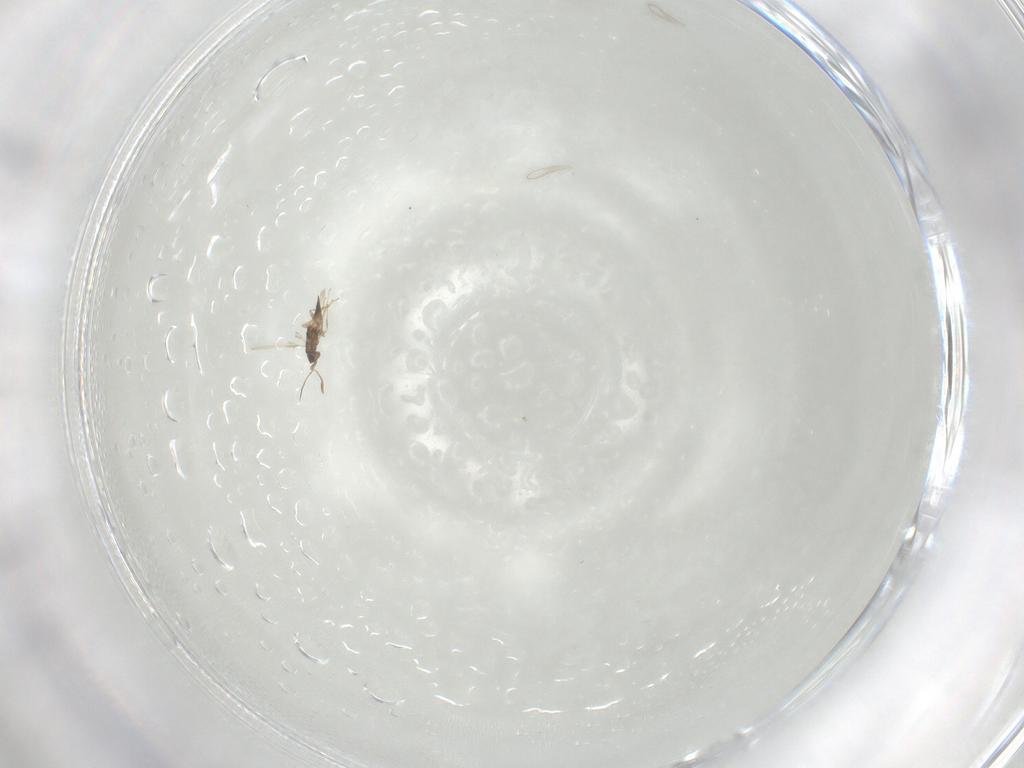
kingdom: Animalia
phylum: Arthropoda
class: Insecta
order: Hymenoptera
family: Mymaridae
